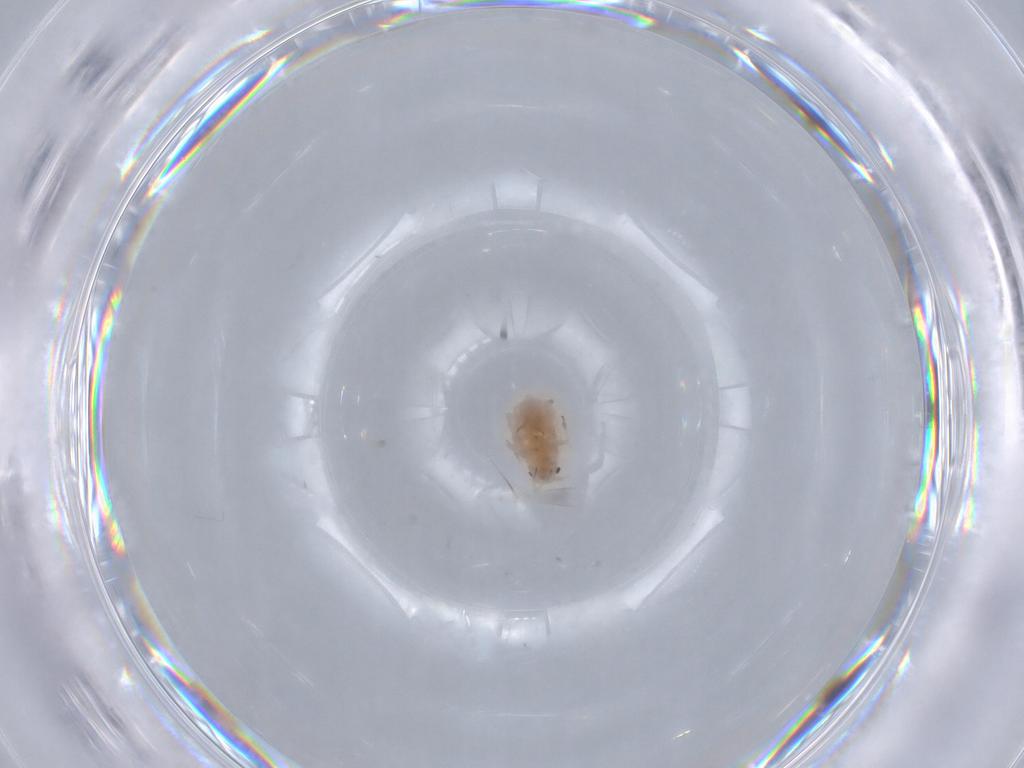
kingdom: Animalia
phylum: Arthropoda
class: Insecta
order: Hemiptera
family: Aphididae
